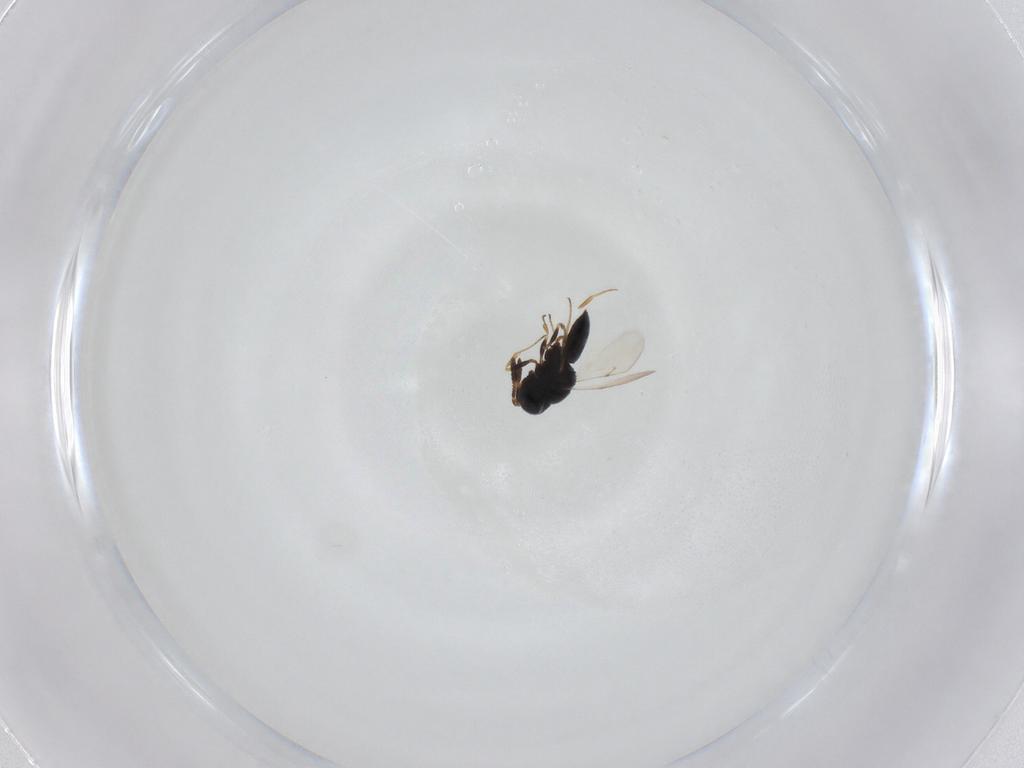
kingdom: Animalia
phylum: Arthropoda
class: Insecta
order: Hymenoptera
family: Scelionidae
